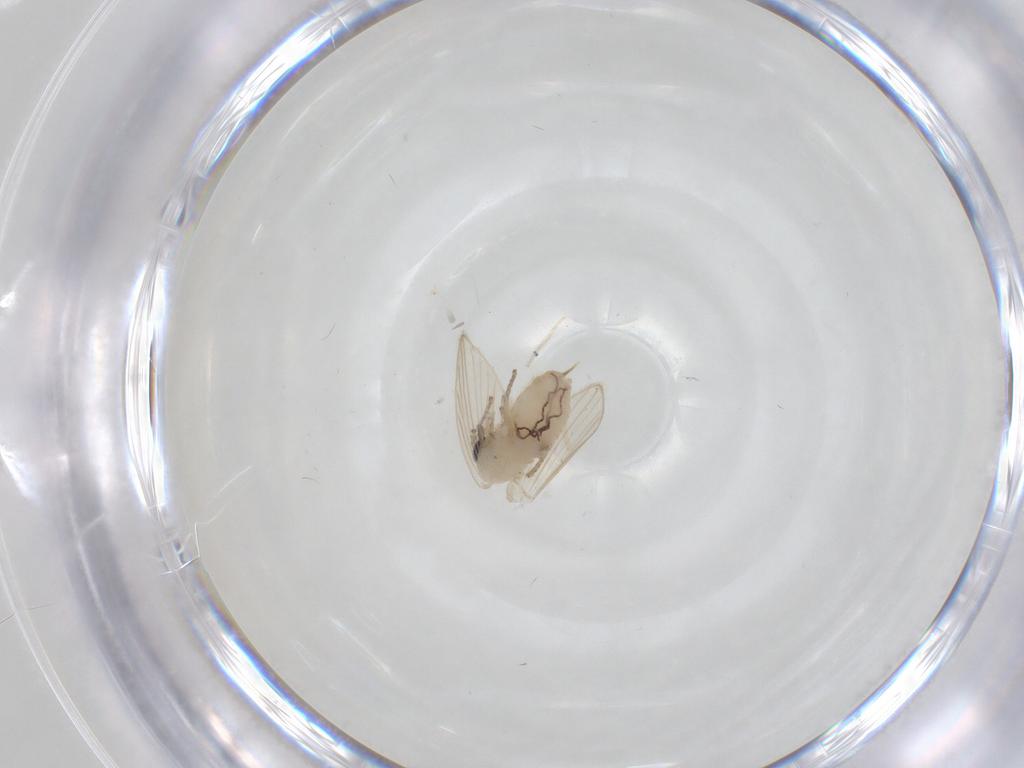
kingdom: Animalia
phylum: Arthropoda
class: Insecta
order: Diptera
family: Psychodidae
